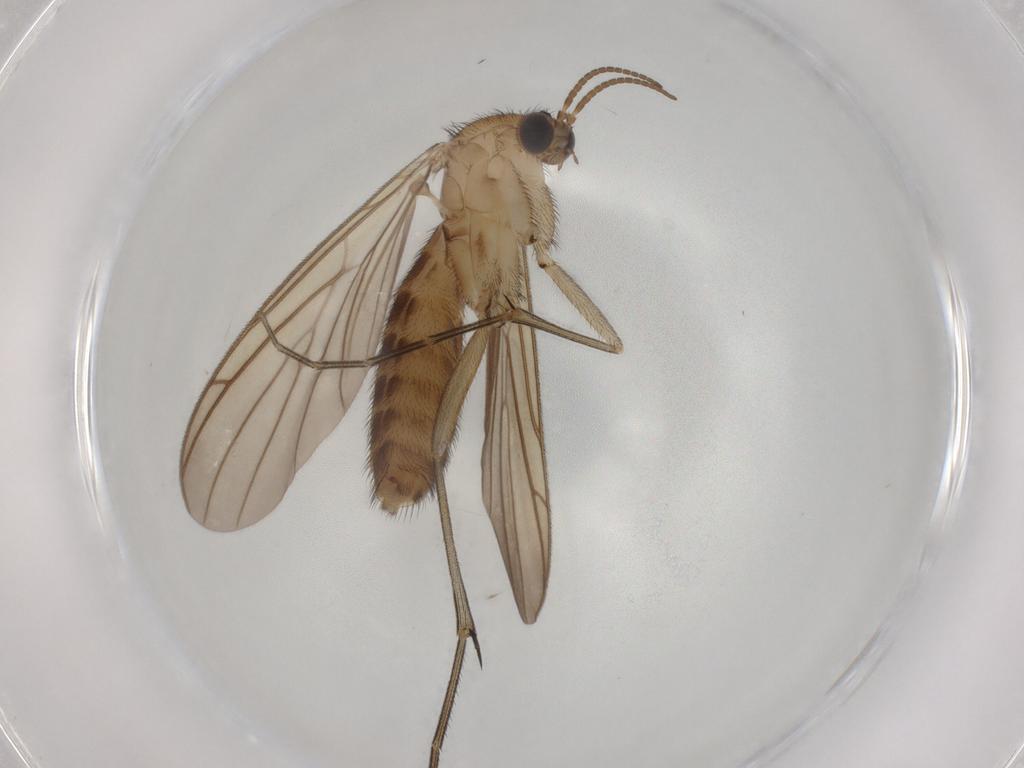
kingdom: Animalia
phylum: Arthropoda
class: Insecta
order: Diptera
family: Keroplatidae
